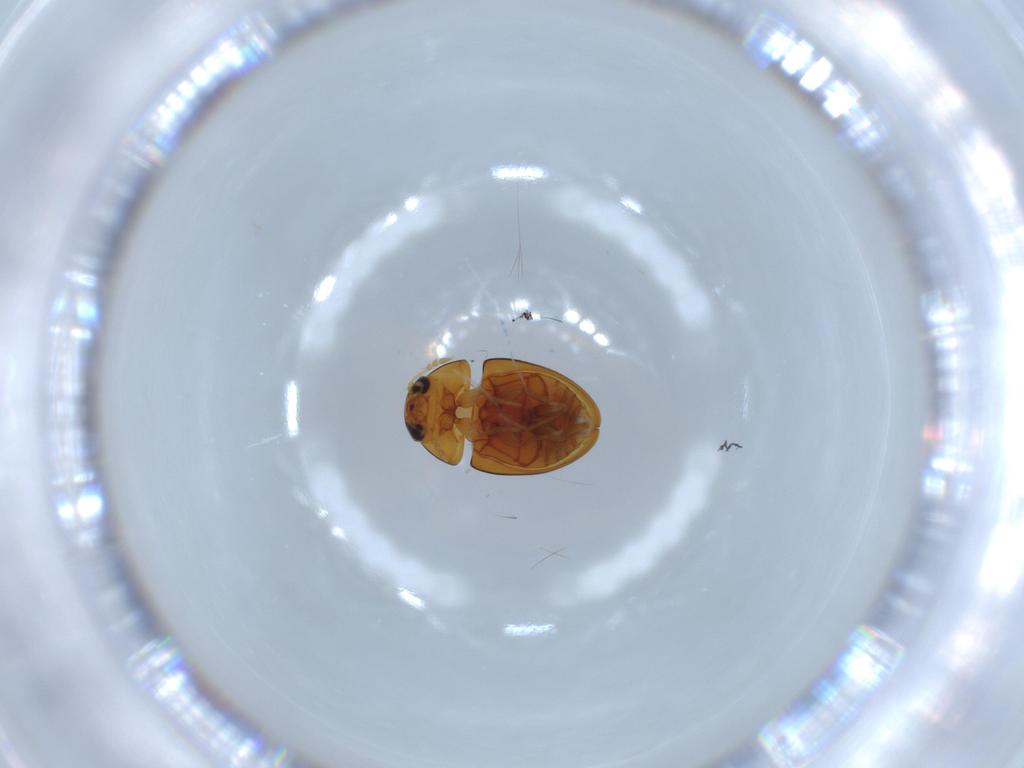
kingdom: Animalia
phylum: Arthropoda
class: Insecta
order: Coleoptera
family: Curculionidae
